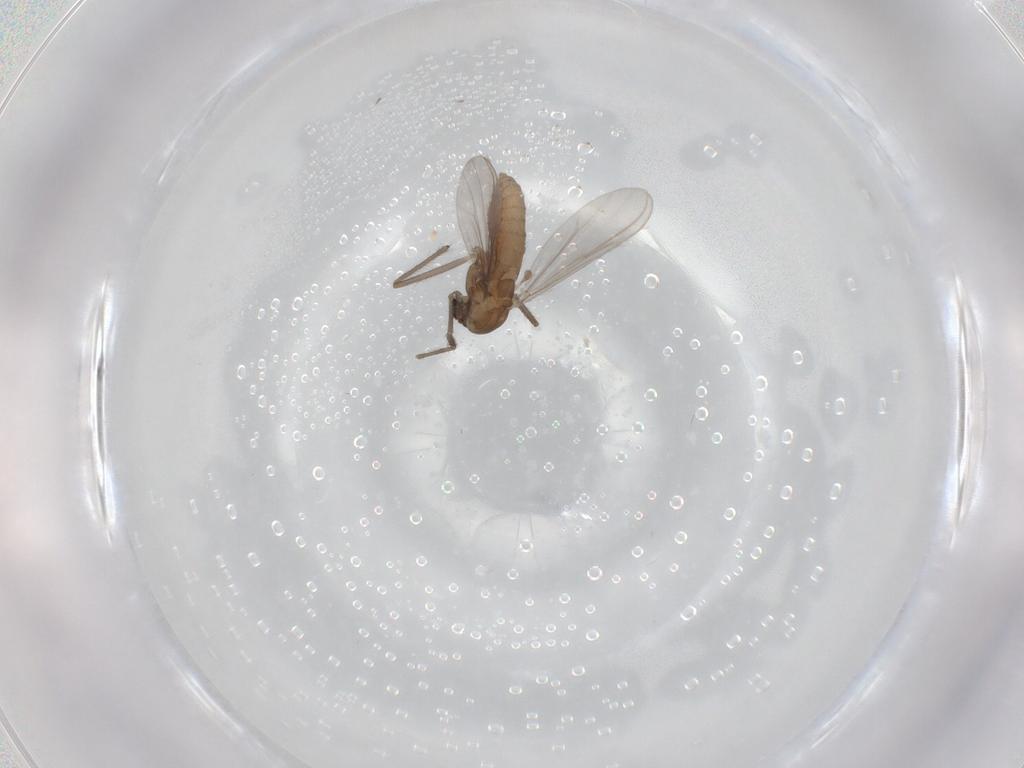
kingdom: Animalia
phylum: Arthropoda
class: Insecta
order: Diptera
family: Chironomidae
